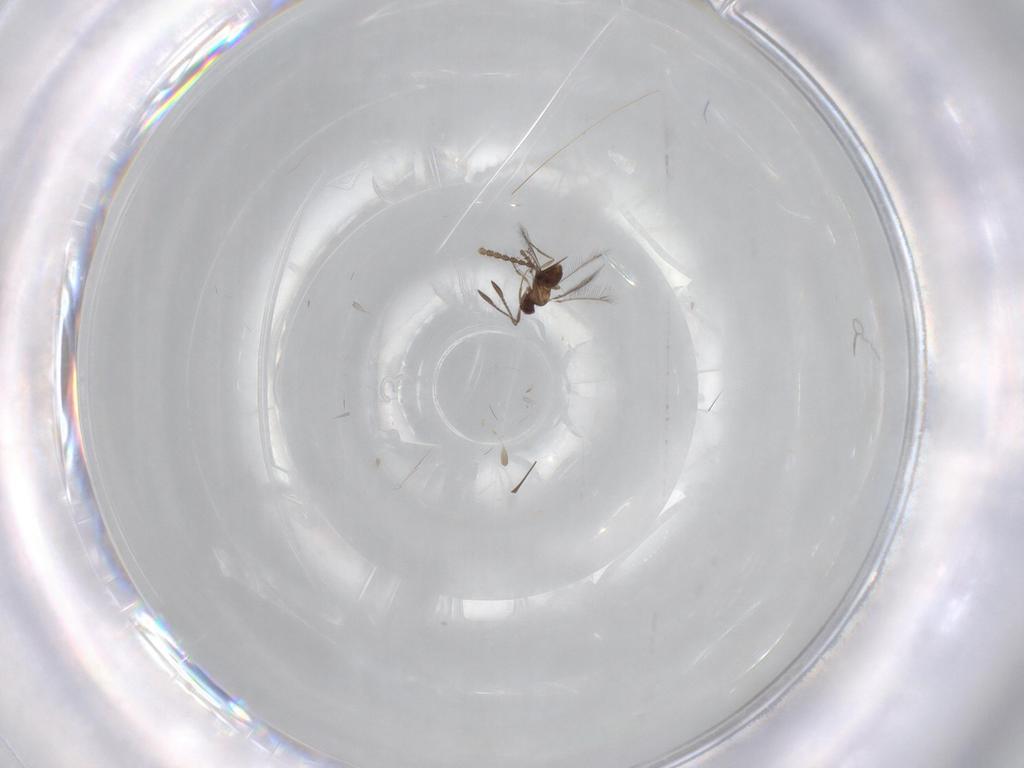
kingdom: Animalia
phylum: Arthropoda
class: Insecta
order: Hymenoptera
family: Mymaridae
